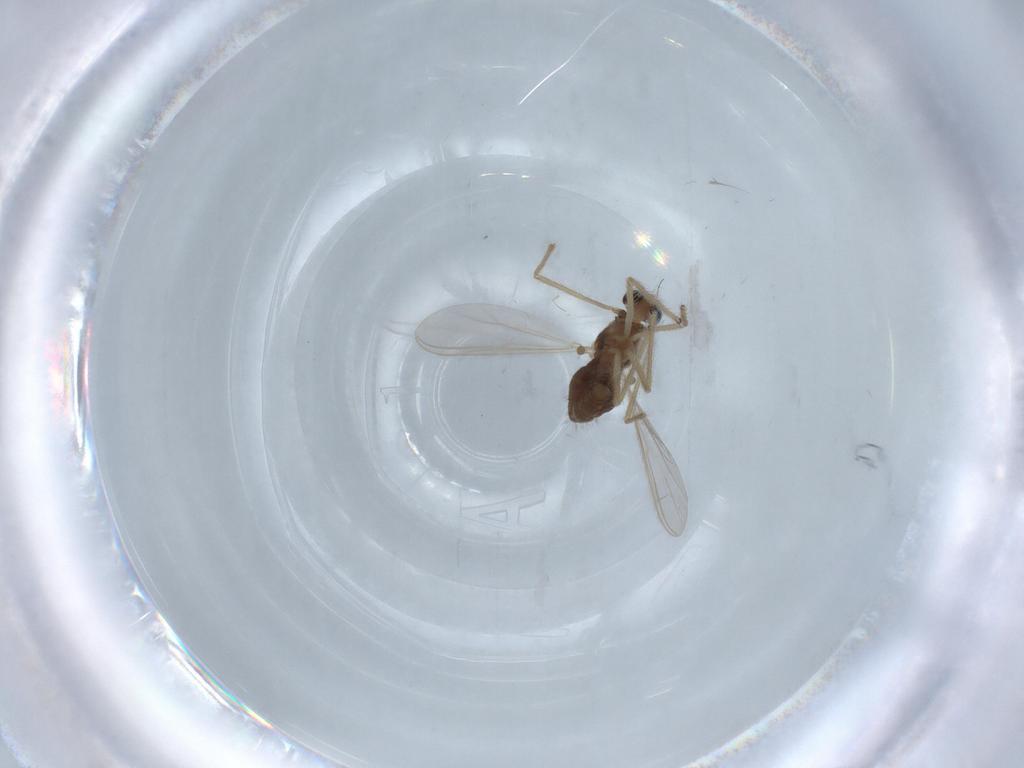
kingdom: Animalia
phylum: Arthropoda
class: Insecta
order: Diptera
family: Chironomidae
